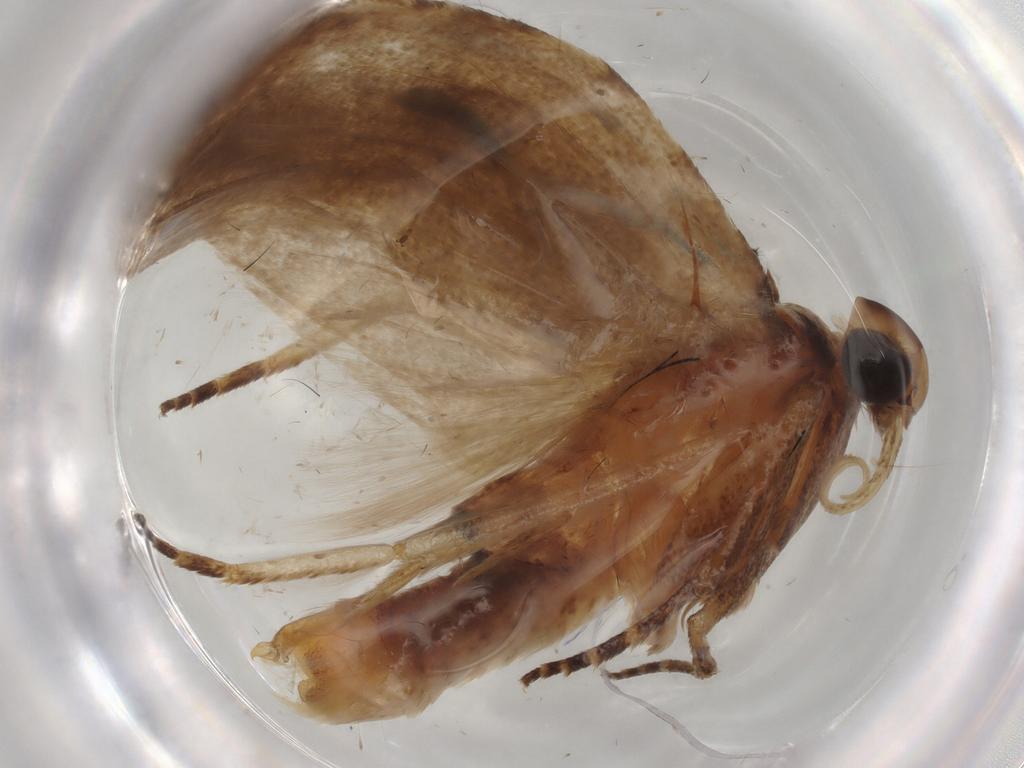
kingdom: Animalia
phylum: Arthropoda
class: Insecta
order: Lepidoptera
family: Gelechiidae
